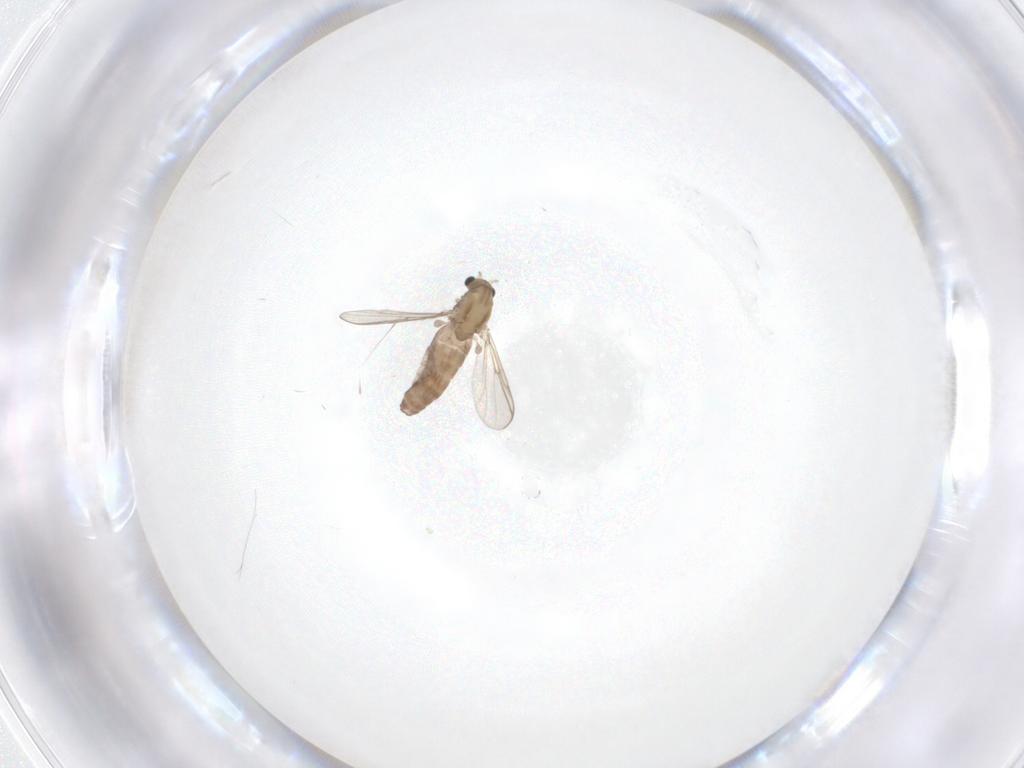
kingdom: Animalia
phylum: Arthropoda
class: Insecta
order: Diptera
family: Chironomidae
